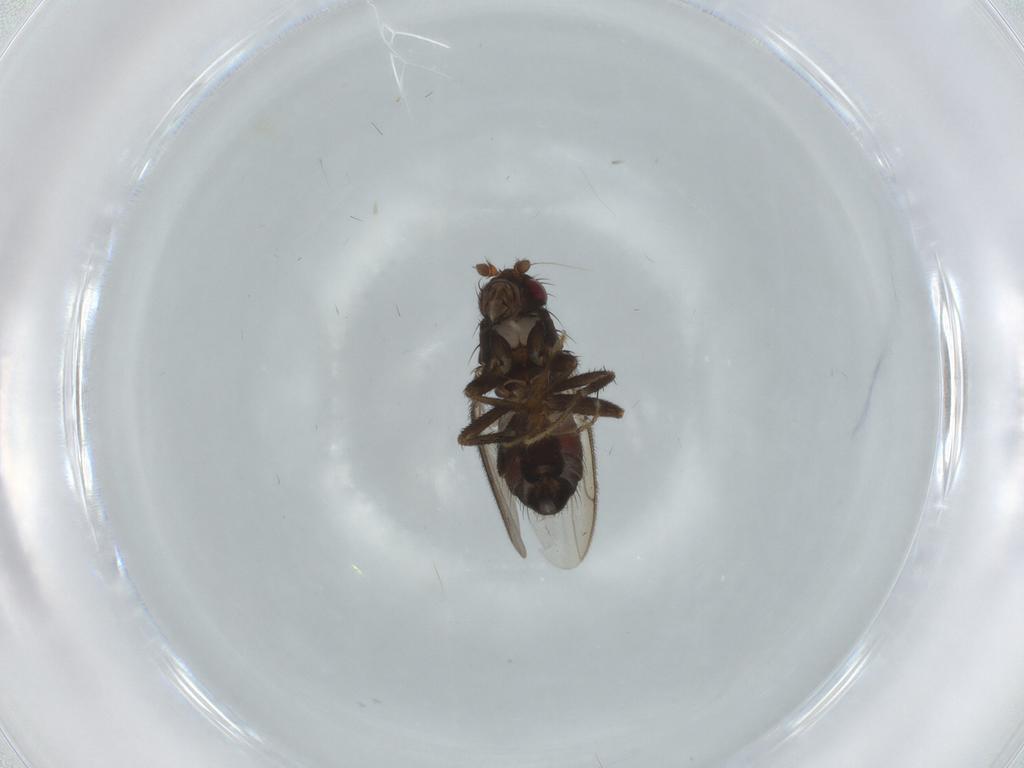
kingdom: Animalia
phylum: Arthropoda
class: Insecta
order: Diptera
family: Sphaeroceridae
